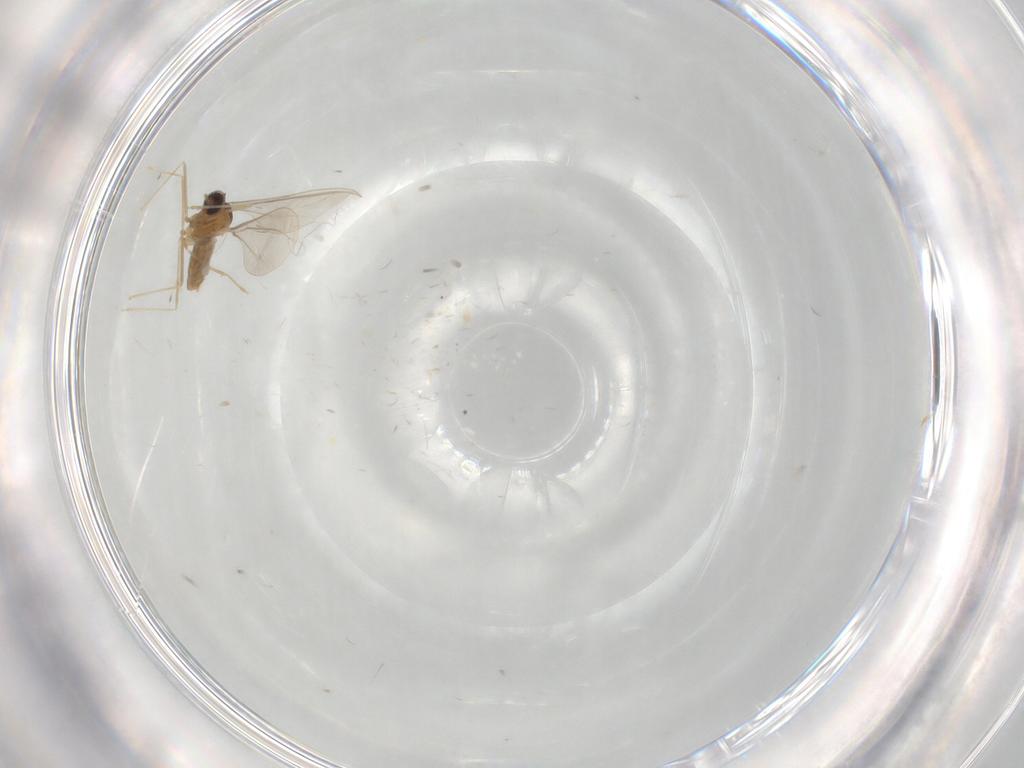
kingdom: Animalia
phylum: Arthropoda
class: Insecta
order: Diptera
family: Cecidomyiidae
